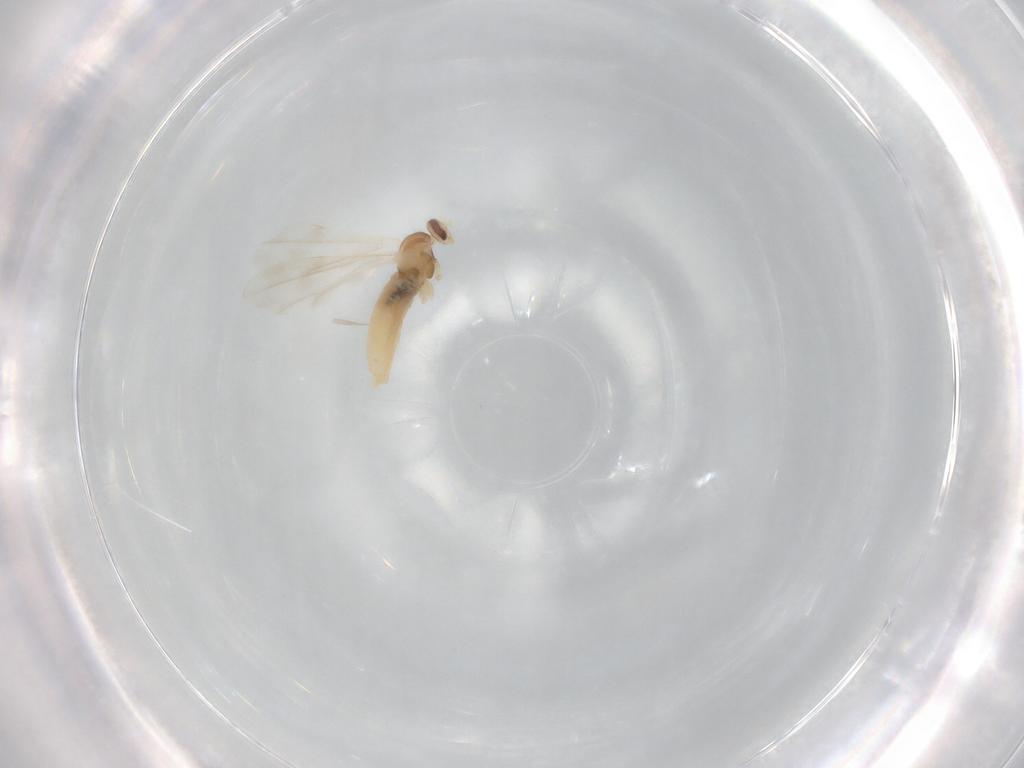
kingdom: Animalia
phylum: Arthropoda
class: Insecta
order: Diptera
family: Cecidomyiidae
